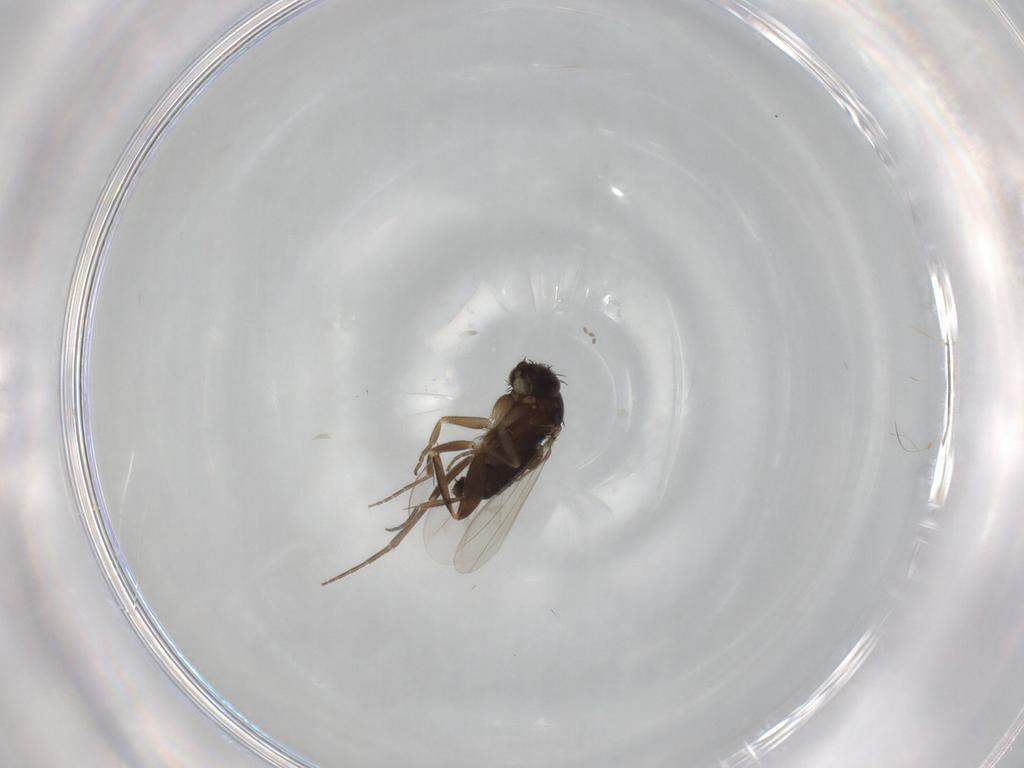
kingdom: Animalia
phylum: Arthropoda
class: Insecta
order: Diptera
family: Phoridae
